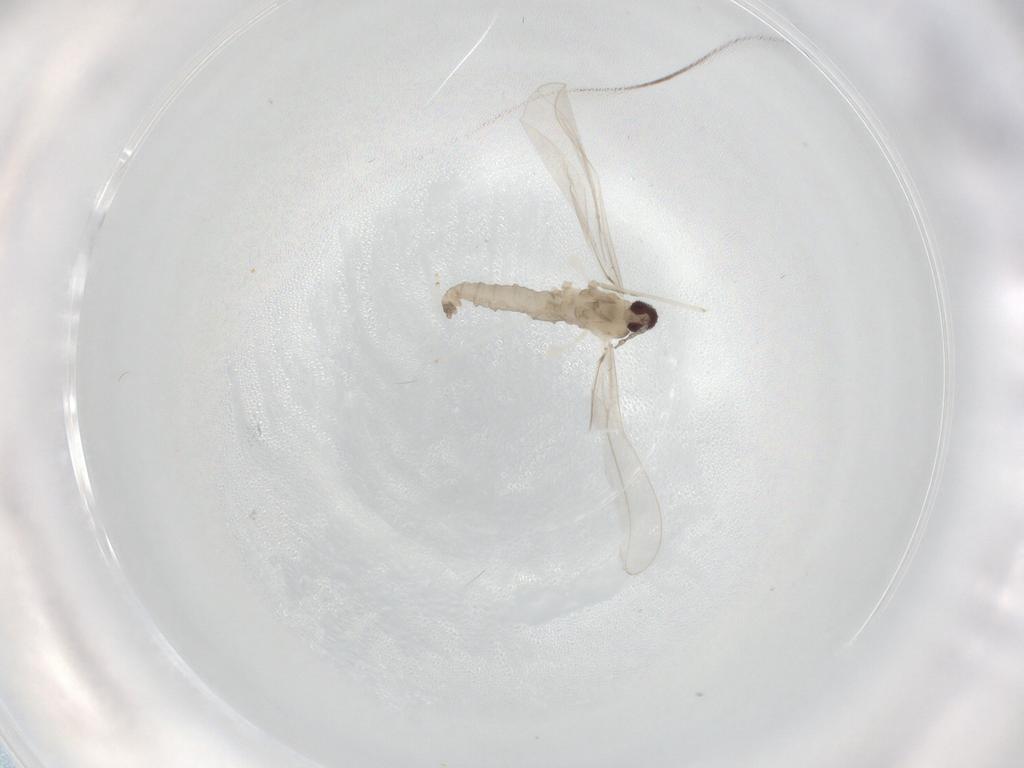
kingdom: Animalia
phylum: Arthropoda
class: Insecta
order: Diptera
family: Cecidomyiidae
